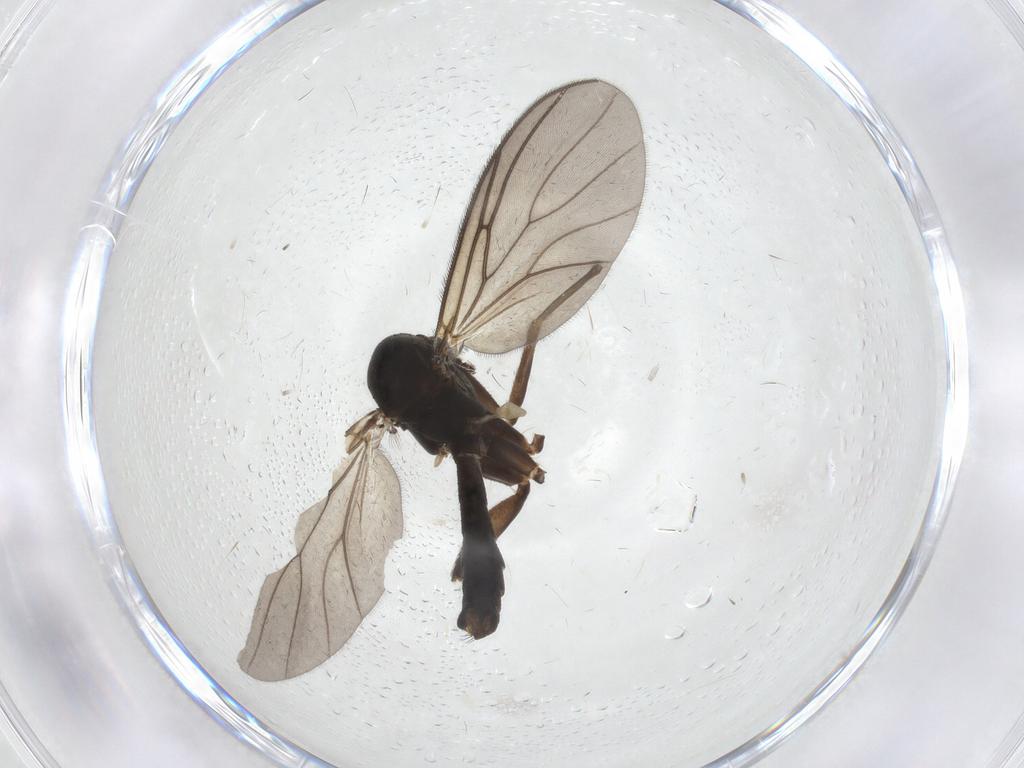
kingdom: Animalia
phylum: Arthropoda
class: Insecta
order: Diptera
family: Mycetophilidae
